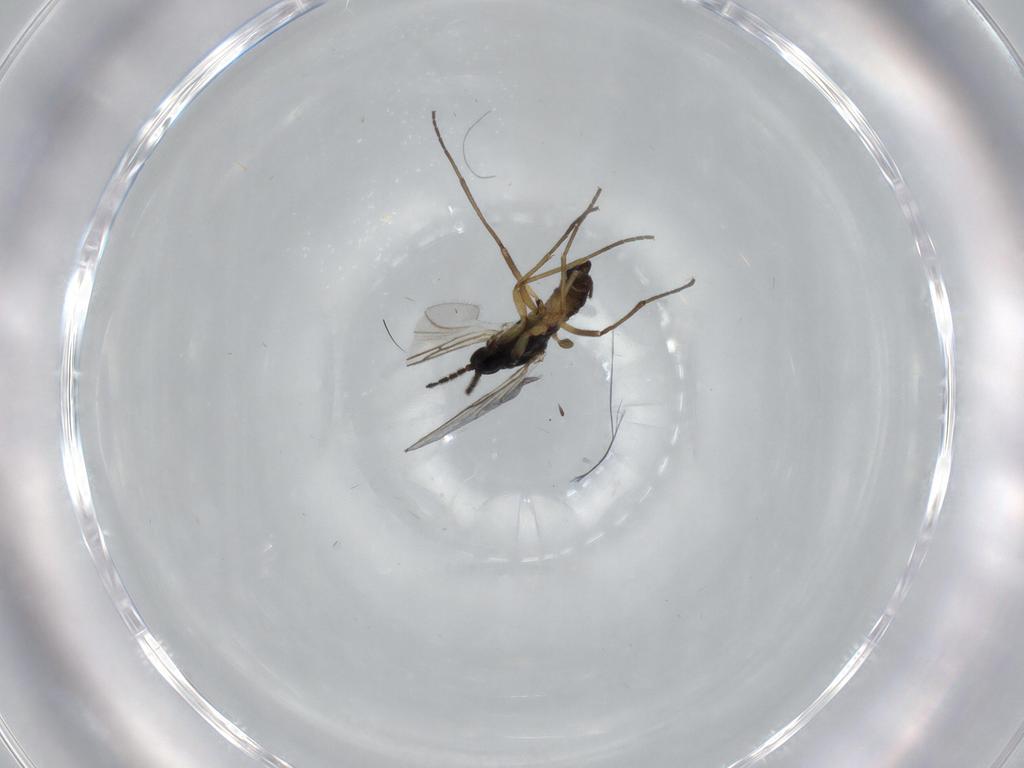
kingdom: Animalia
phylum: Arthropoda
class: Insecta
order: Diptera
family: Sciaridae
